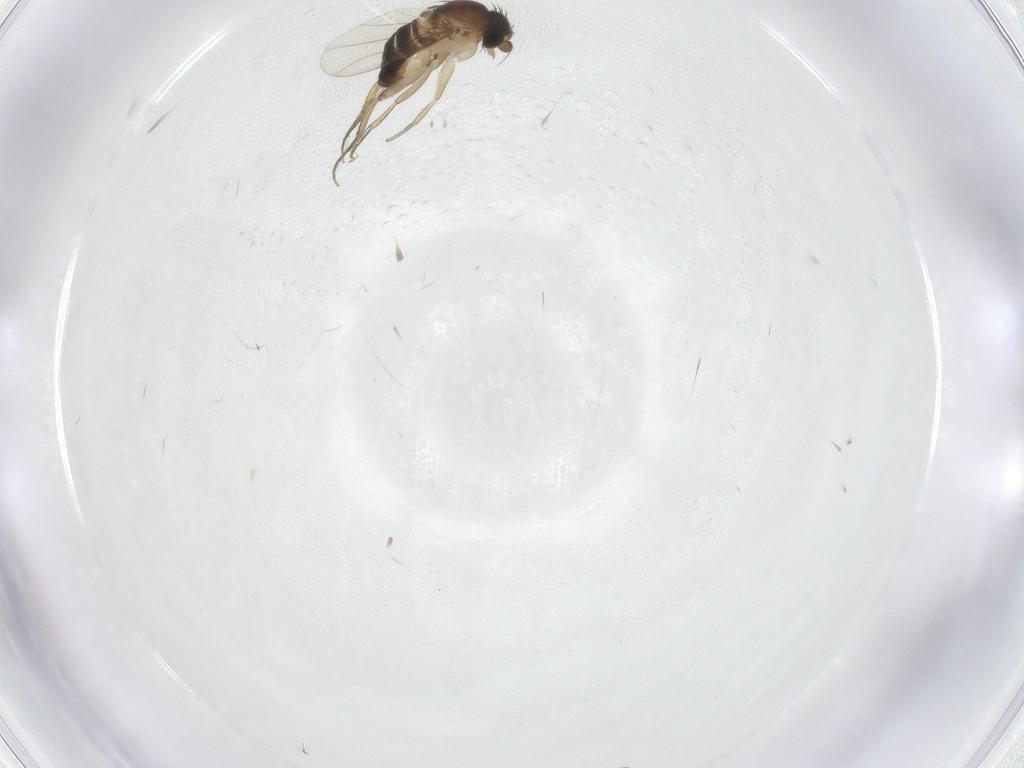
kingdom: Animalia
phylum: Arthropoda
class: Insecta
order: Diptera
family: Phoridae
